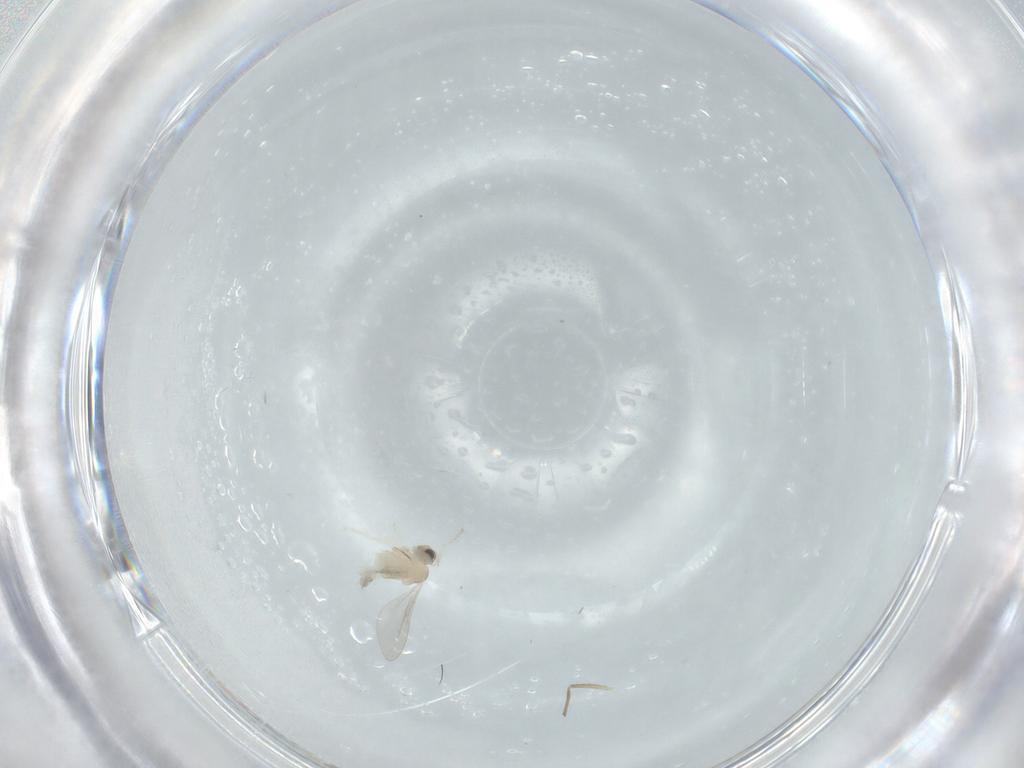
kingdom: Animalia
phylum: Arthropoda
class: Insecta
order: Diptera
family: Cecidomyiidae
